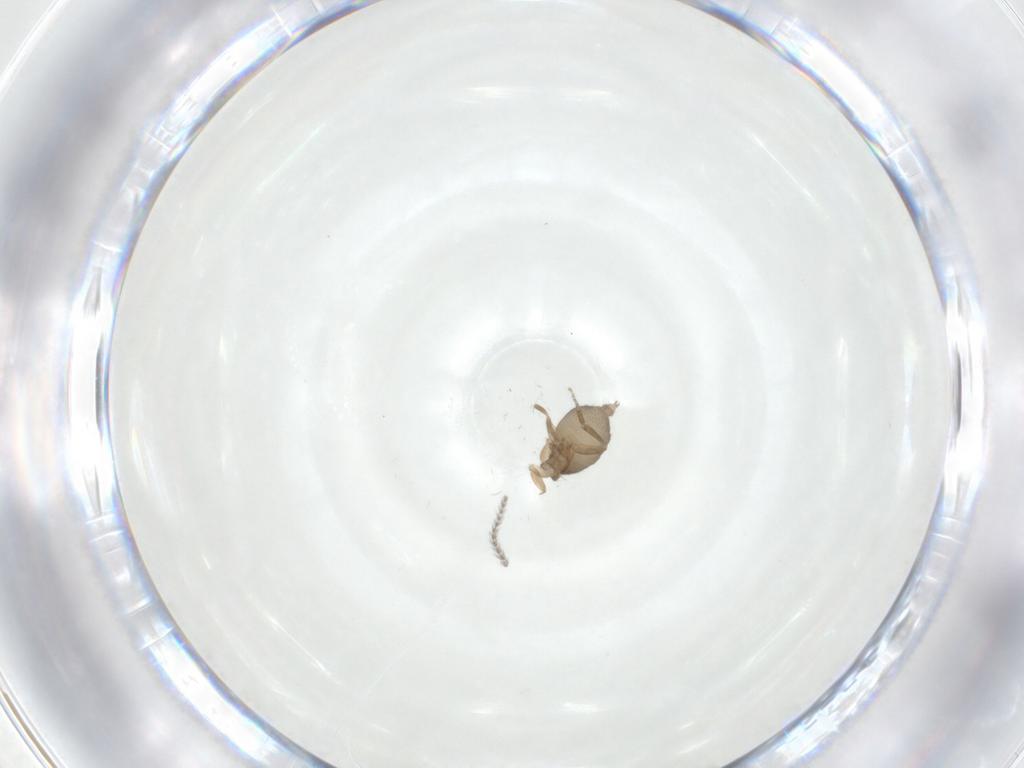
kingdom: Animalia
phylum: Arthropoda
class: Insecta
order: Diptera
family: Phoridae
